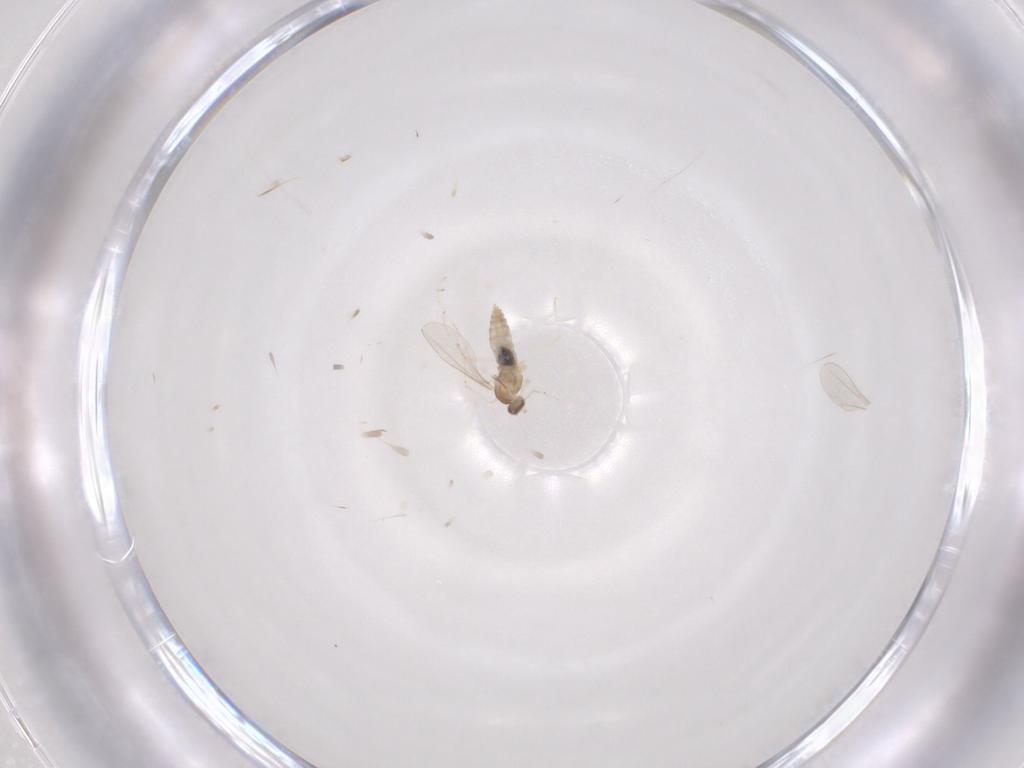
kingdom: Animalia
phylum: Arthropoda
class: Insecta
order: Diptera
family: Cecidomyiidae
